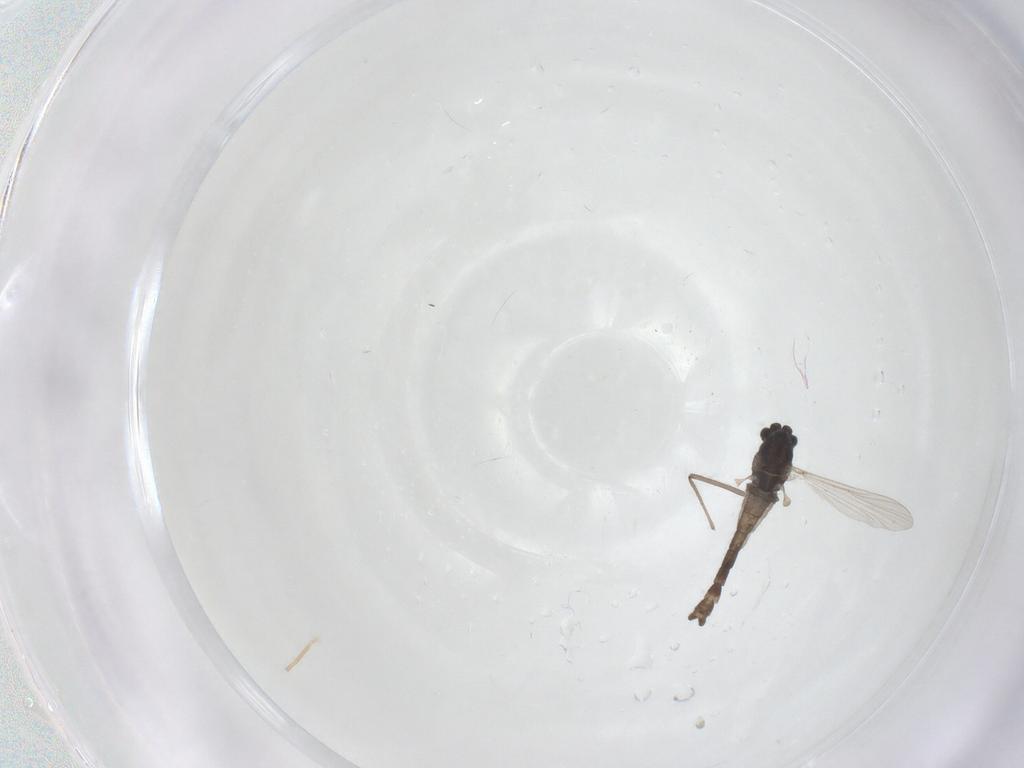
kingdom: Animalia
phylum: Arthropoda
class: Insecta
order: Diptera
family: Chironomidae
